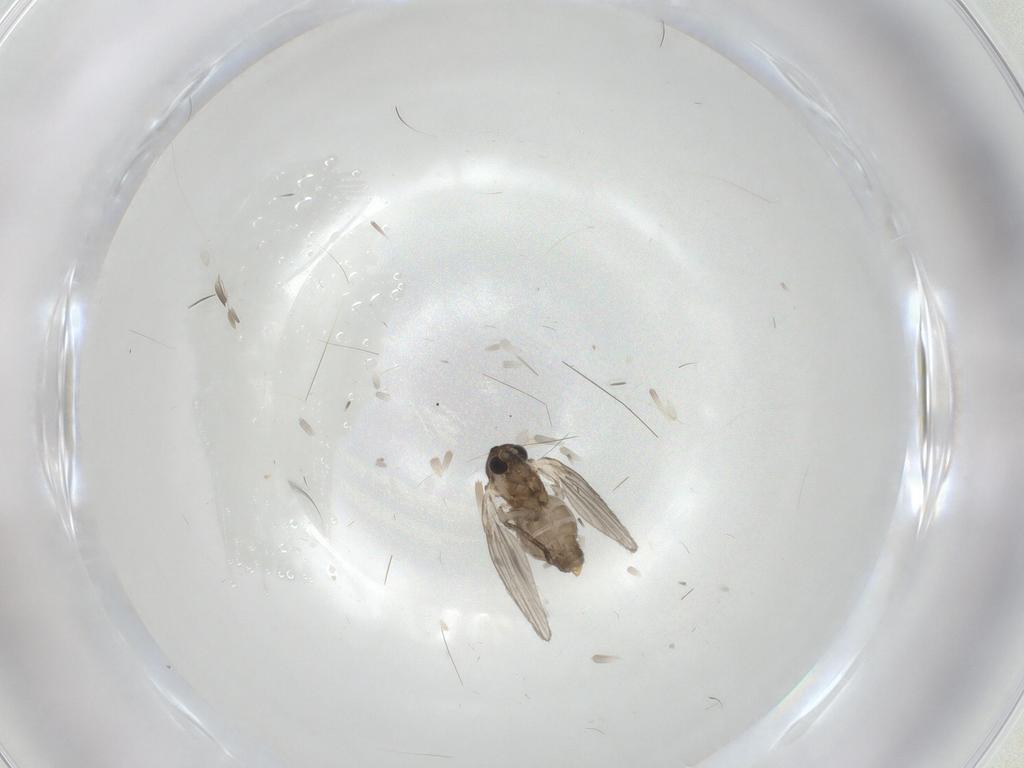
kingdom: Animalia
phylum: Arthropoda
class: Insecta
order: Diptera
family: Psychodidae
